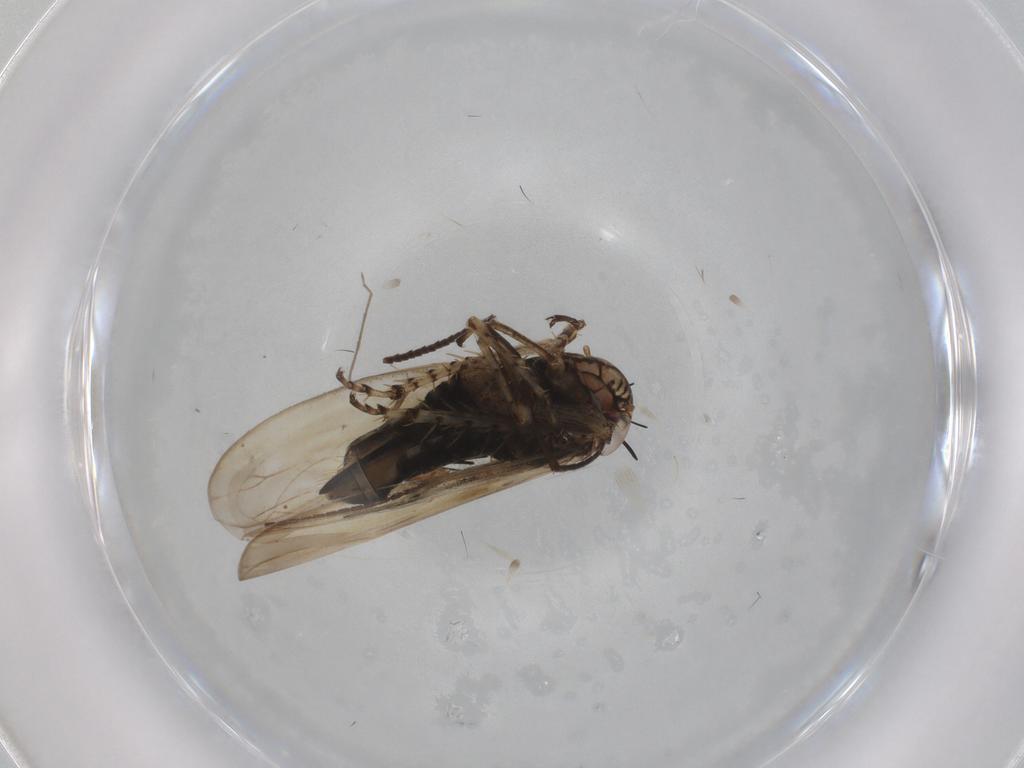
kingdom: Animalia
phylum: Arthropoda
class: Insecta
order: Hemiptera
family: Cicadellidae
